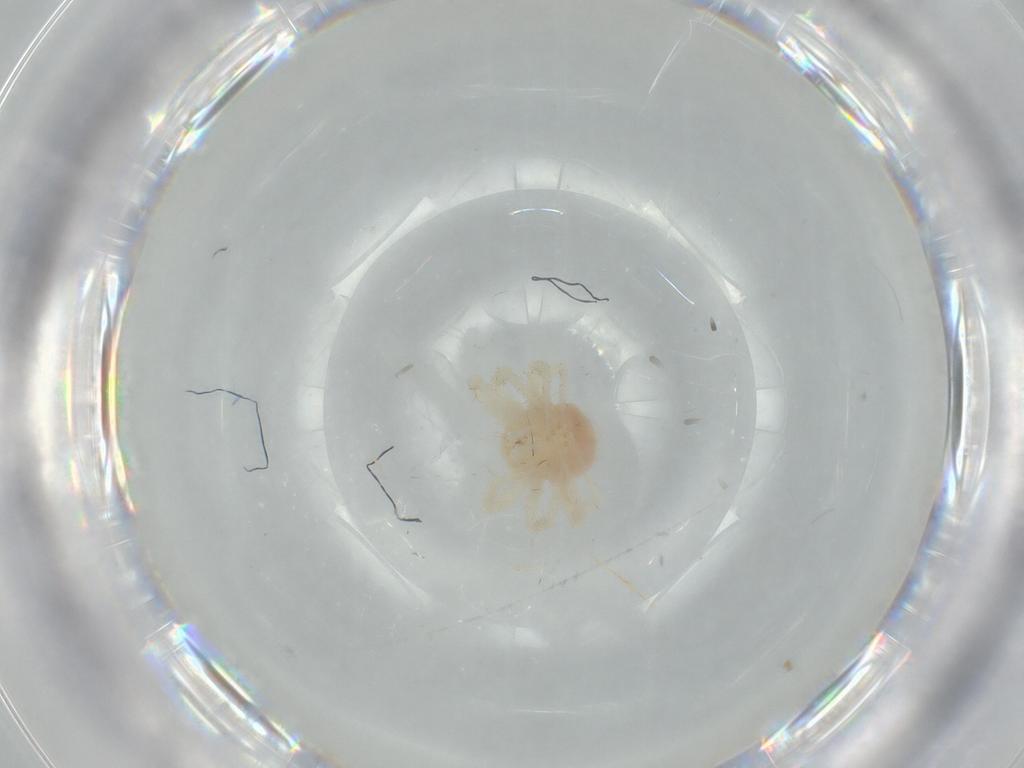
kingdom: Animalia
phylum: Arthropoda
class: Arachnida
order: Trombidiformes
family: Anystidae
